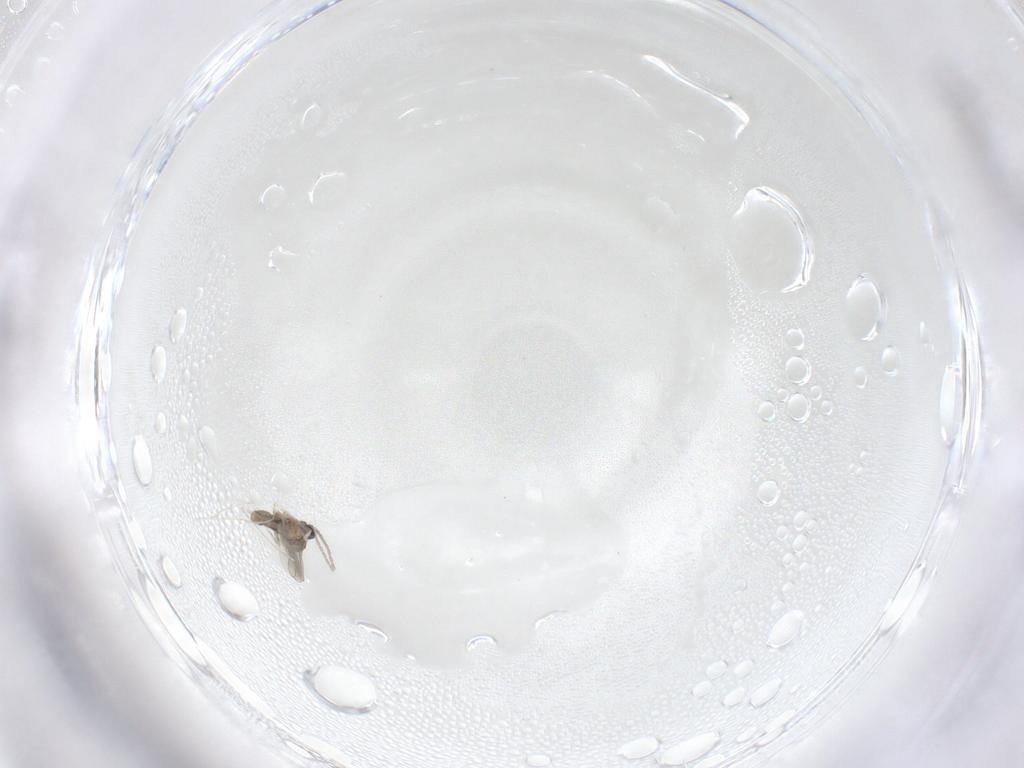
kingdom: Animalia
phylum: Arthropoda
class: Insecta
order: Diptera
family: Cecidomyiidae
